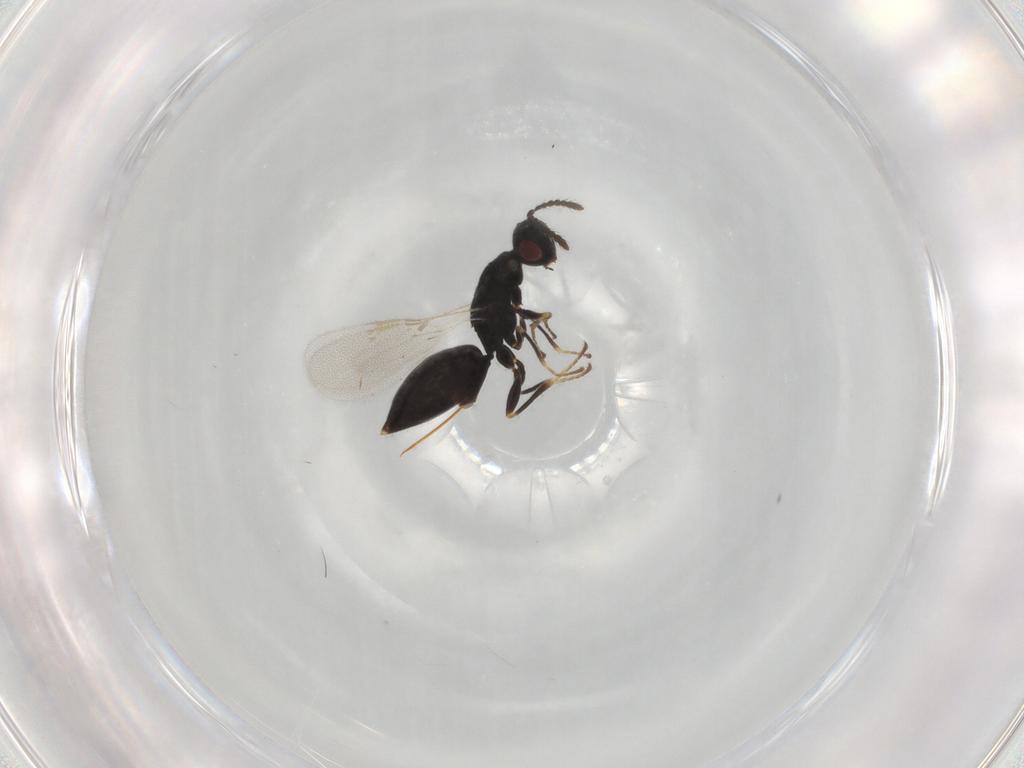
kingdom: Animalia
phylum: Arthropoda
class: Insecta
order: Hymenoptera
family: Eurytomidae
